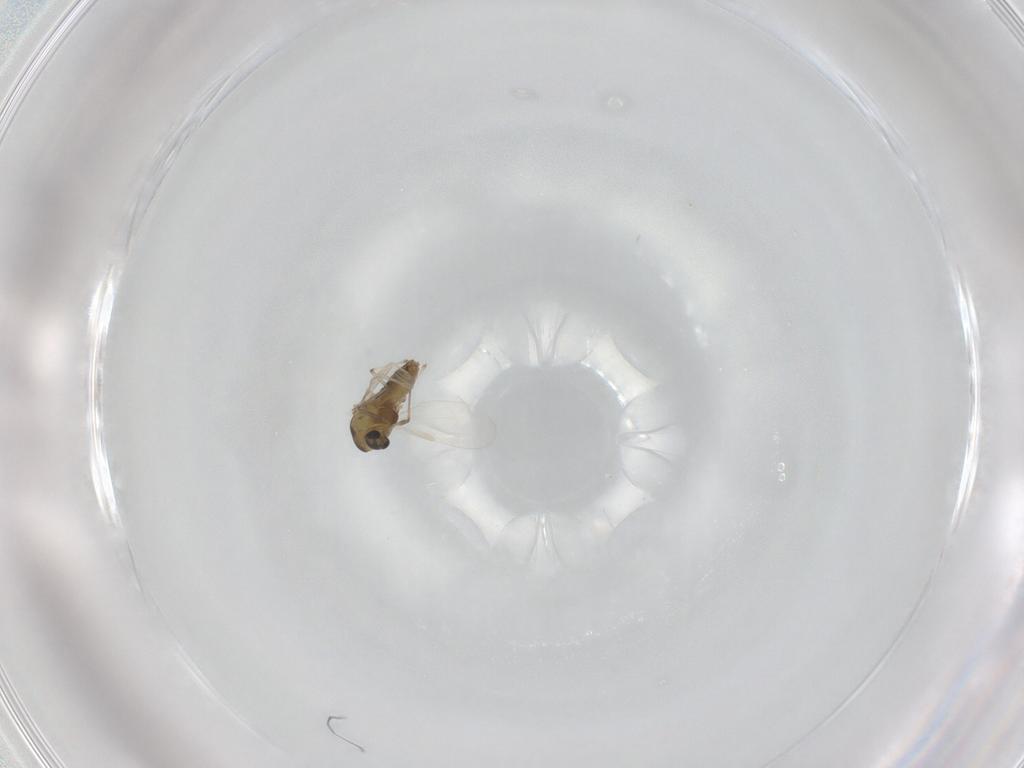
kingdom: Animalia
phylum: Arthropoda
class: Insecta
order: Diptera
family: Chironomidae
